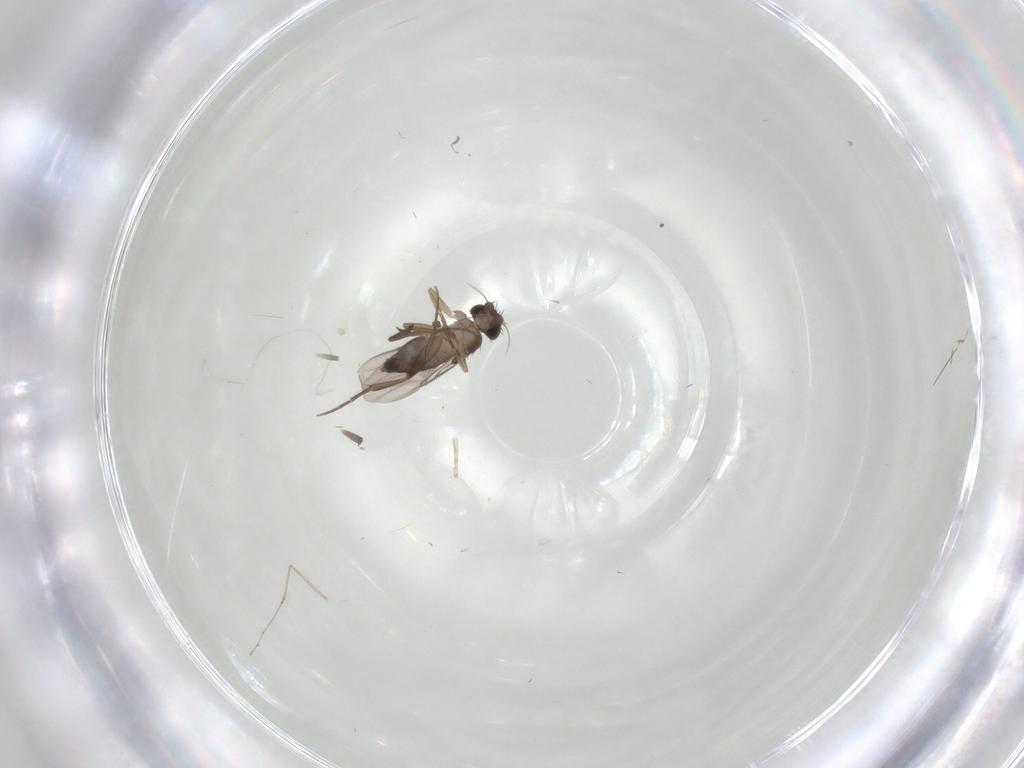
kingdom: Animalia
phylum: Arthropoda
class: Insecta
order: Diptera
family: Phoridae
